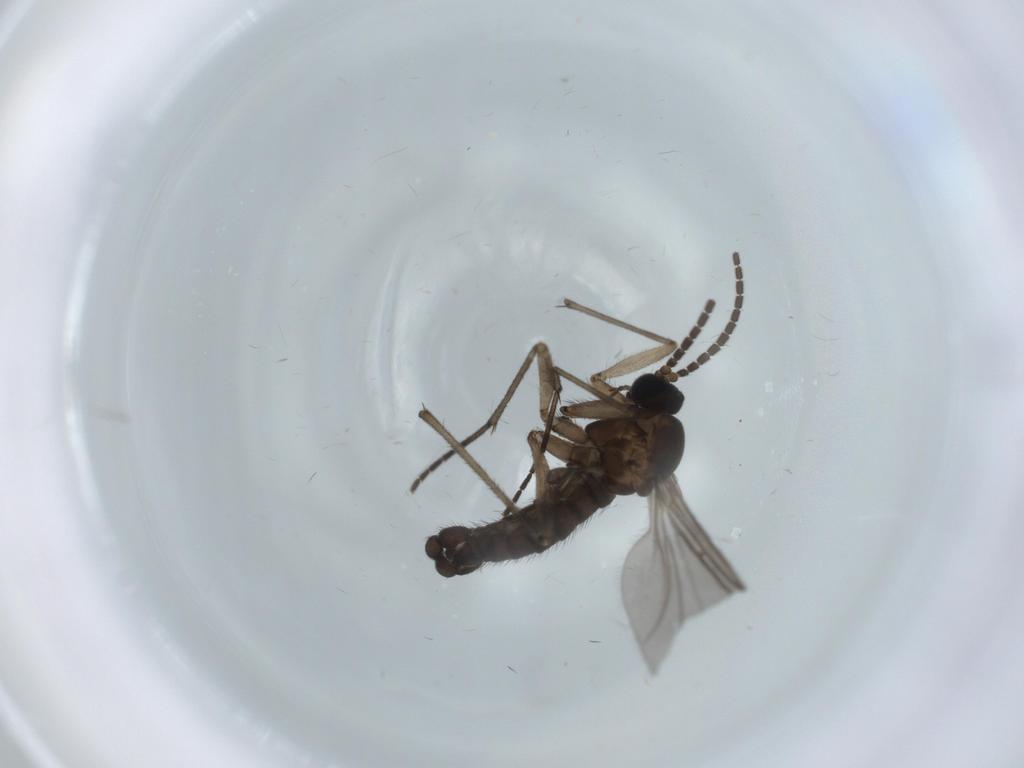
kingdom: Animalia
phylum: Arthropoda
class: Insecta
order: Diptera
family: Sciaridae
